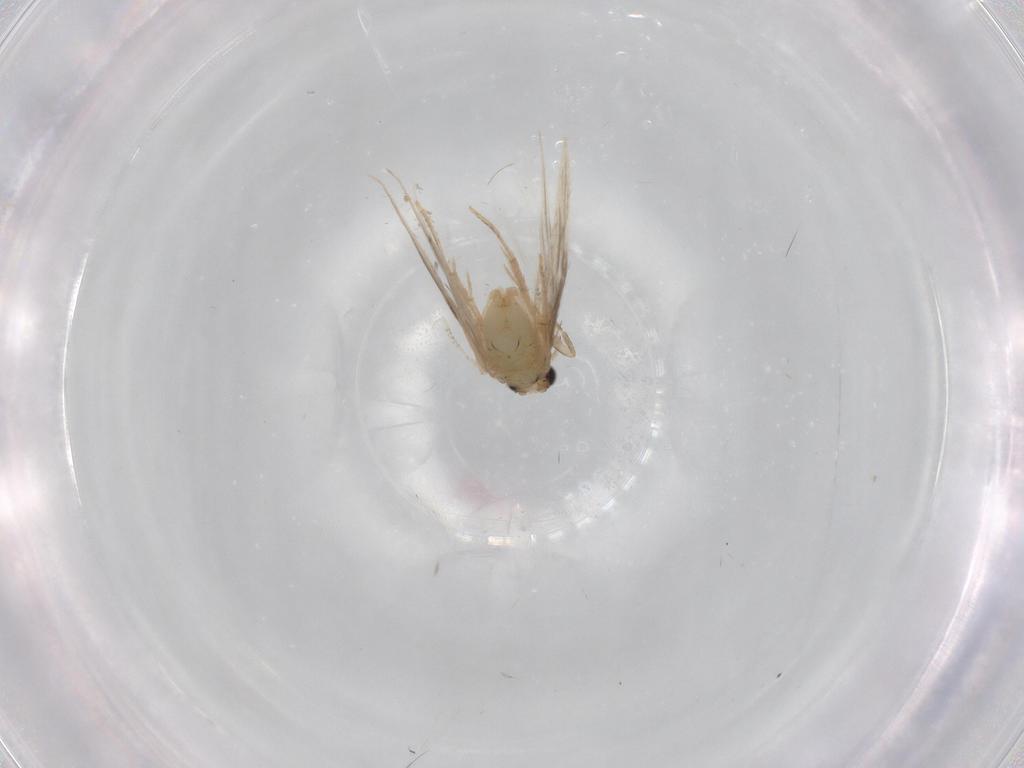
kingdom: Animalia
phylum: Arthropoda
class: Insecta
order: Trichoptera
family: Hydroptilidae
